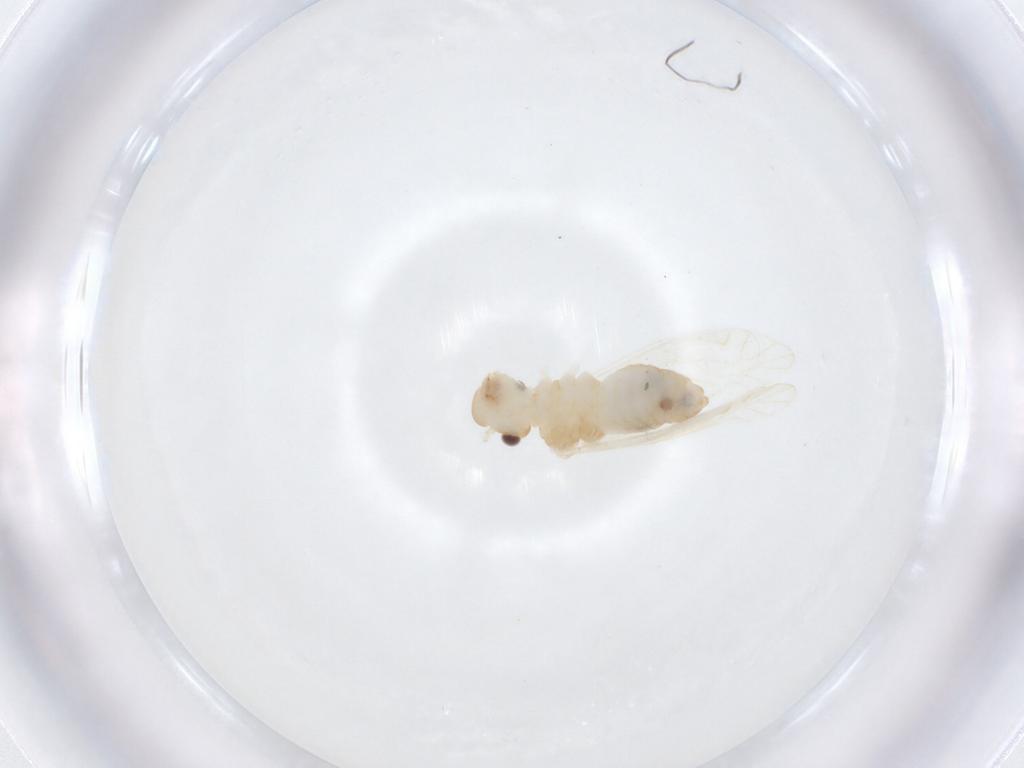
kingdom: Animalia
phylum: Arthropoda
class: Insecta
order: Psocodea
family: Philotarsidae
